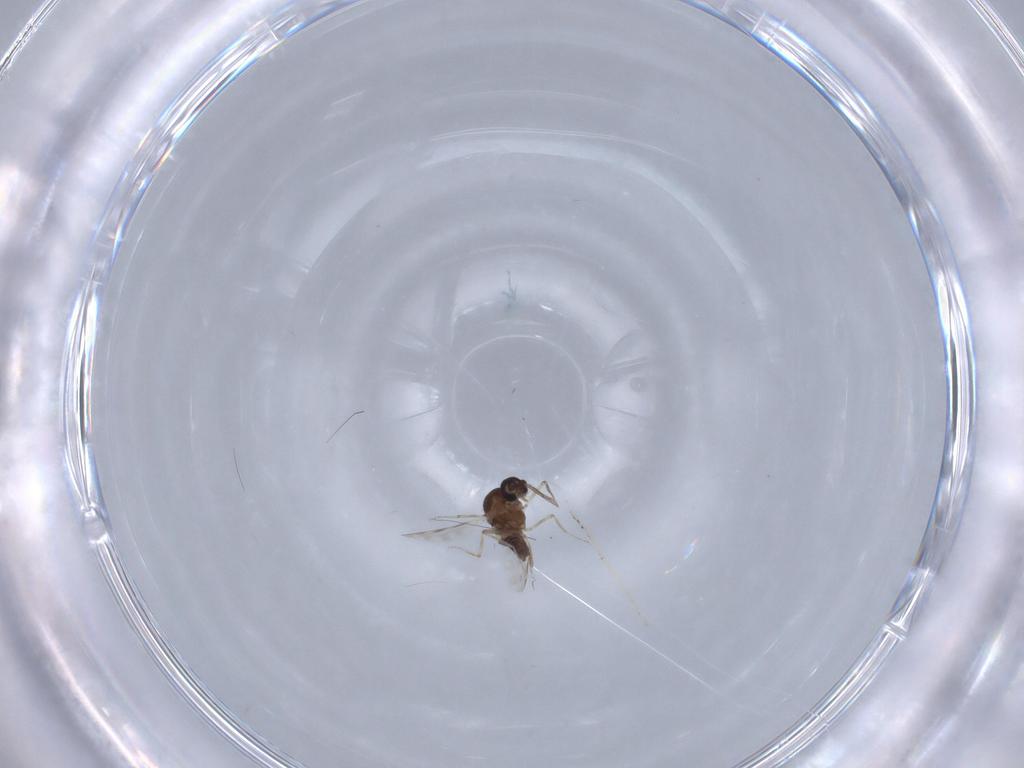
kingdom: Animalia
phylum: Arthropoda
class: Insecta
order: Diptera
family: Chironomidae
